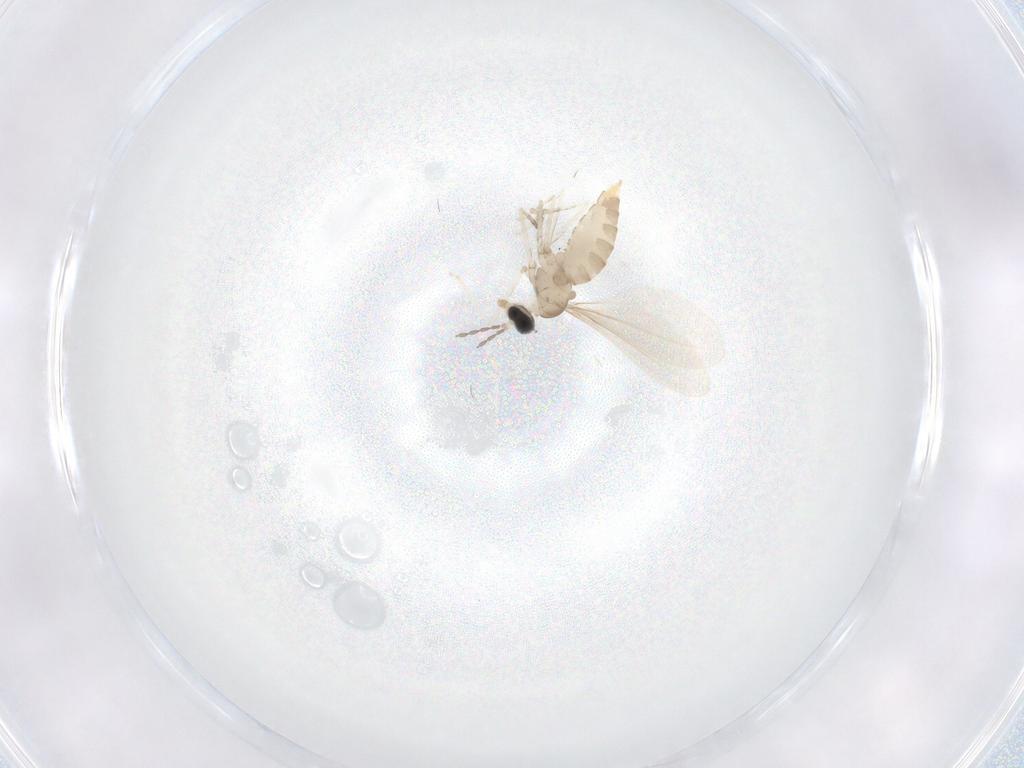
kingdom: Animalia
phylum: Arthropoda
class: Insecta
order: Diptera
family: Cecidomyiidae
